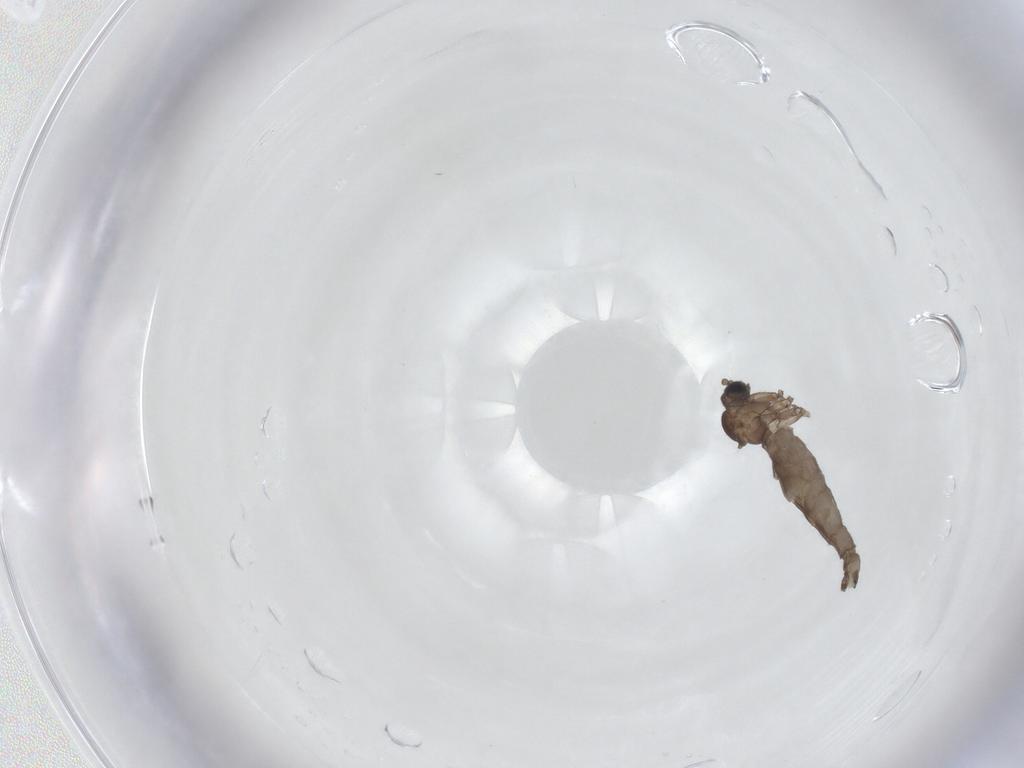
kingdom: Animalia
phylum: Arthropoda
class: Insecta
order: Diptera
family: Sciaridae
